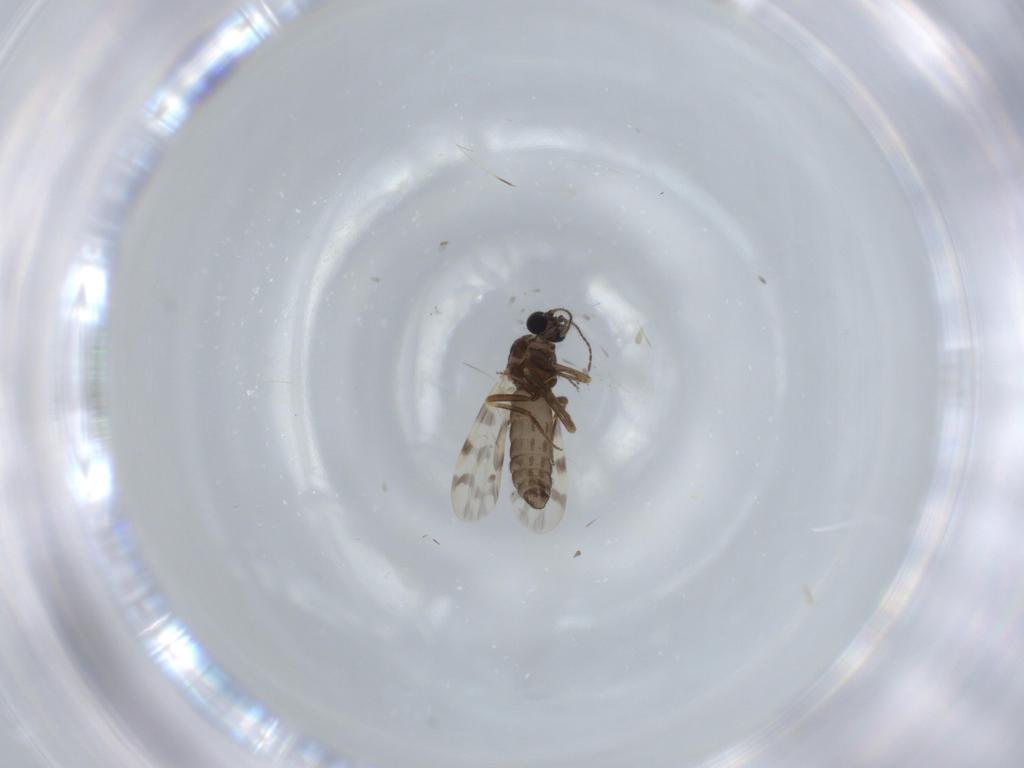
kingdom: Animalia
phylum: Arthropoda
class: Insecta
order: Diptera
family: Ceratopogonidae
